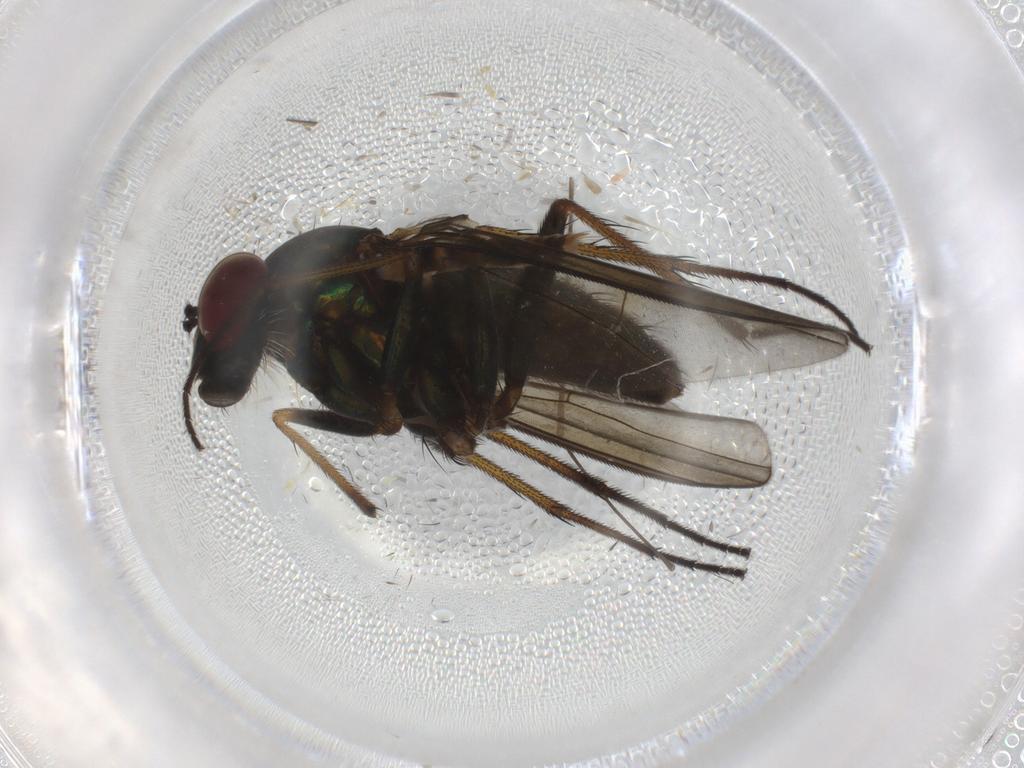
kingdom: Animalia
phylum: Arthropoda
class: Insecta
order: Diptera
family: Dolichopodidae
